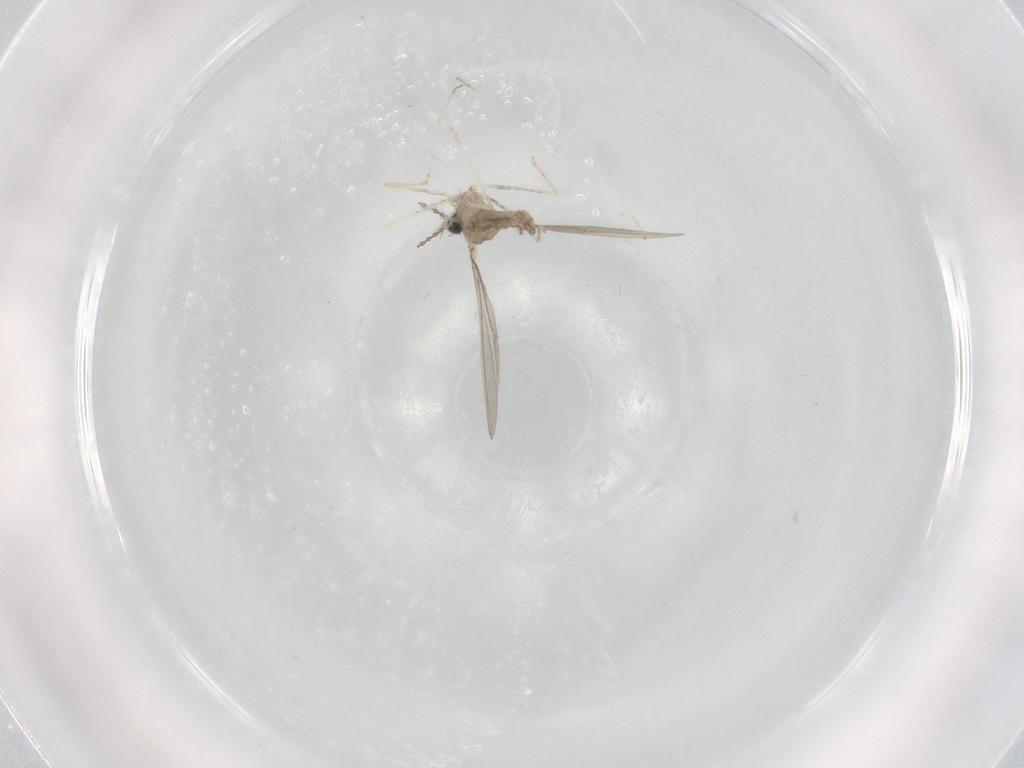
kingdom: Animalia
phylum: Arthropoda
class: Insecta
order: Diptera
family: Cecidomyiidae
